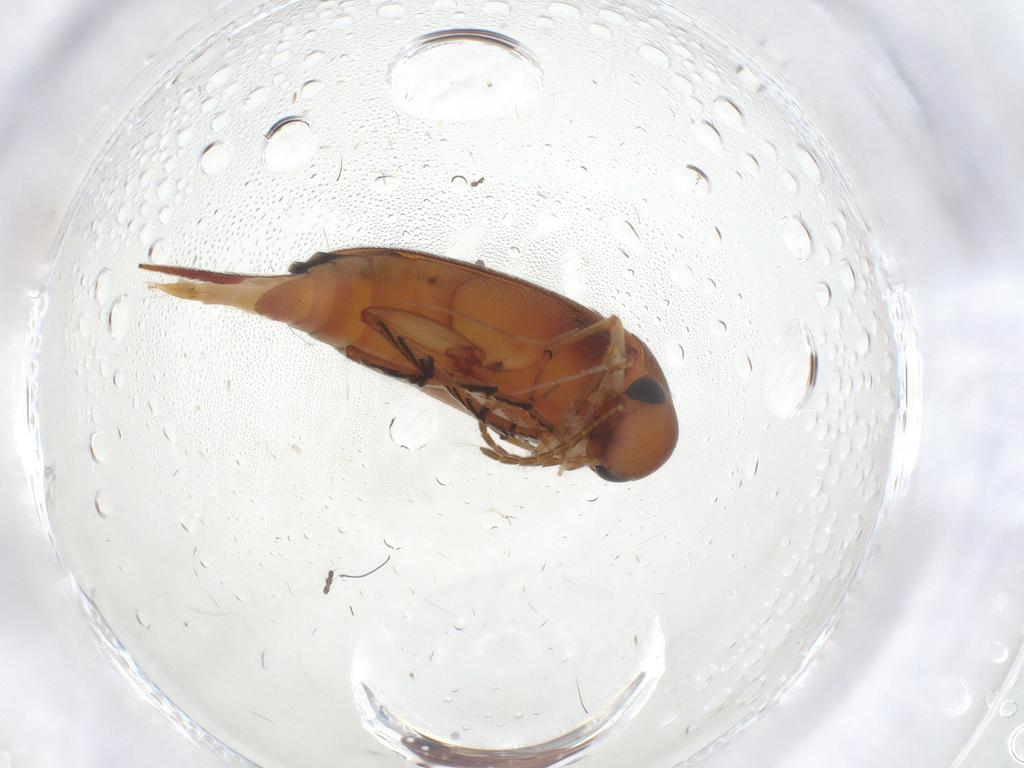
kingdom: Animalia
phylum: Arthropoda
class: Insecta
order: Coleoptera
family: Mordellidae
